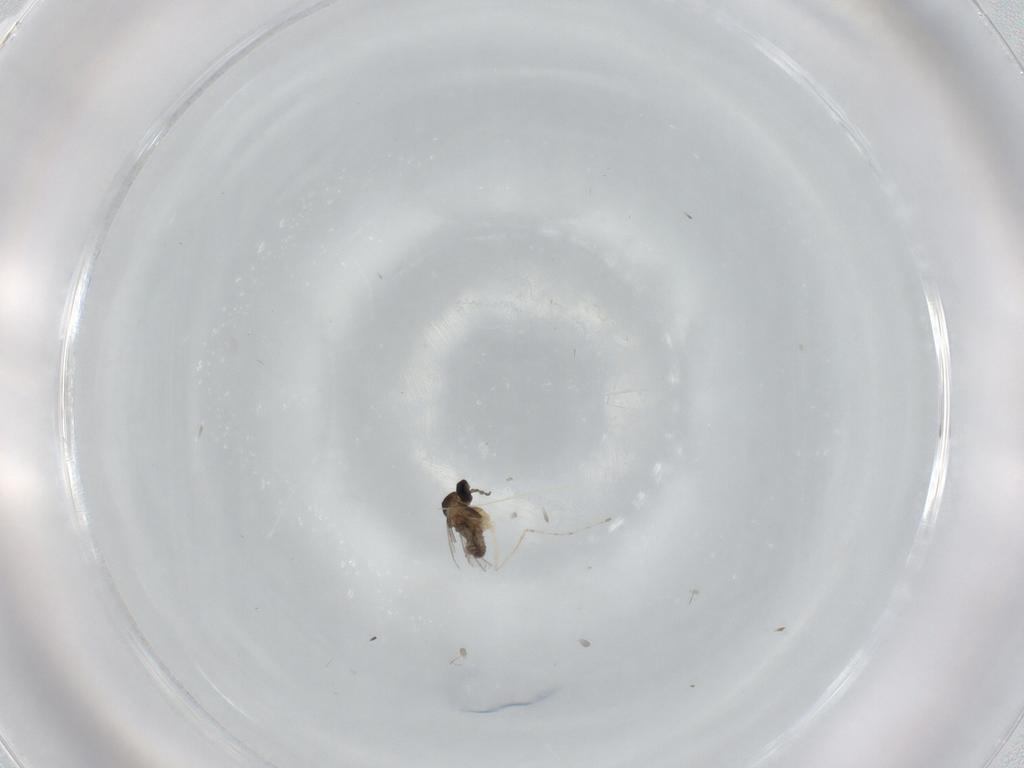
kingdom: Animalia
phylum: Arthropoda
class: Insecta
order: Diptera
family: Cecidomyiidae
